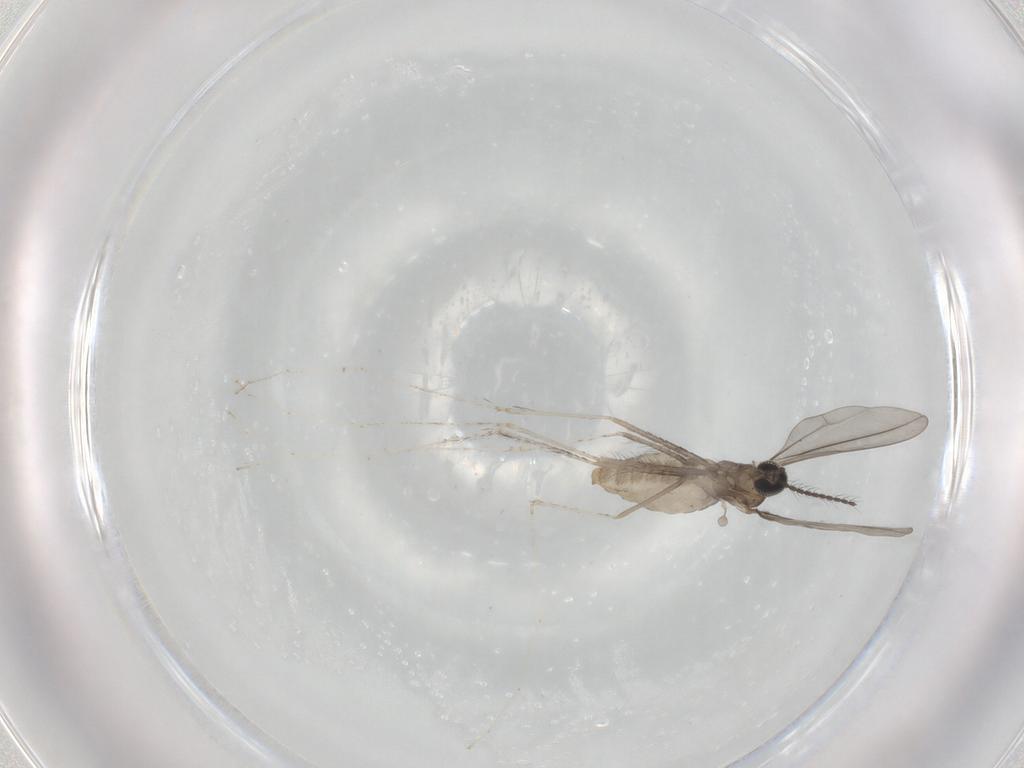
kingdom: Animalia
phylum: Arthropoda
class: Insecta
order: Diptera
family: Cecidomyiidae
